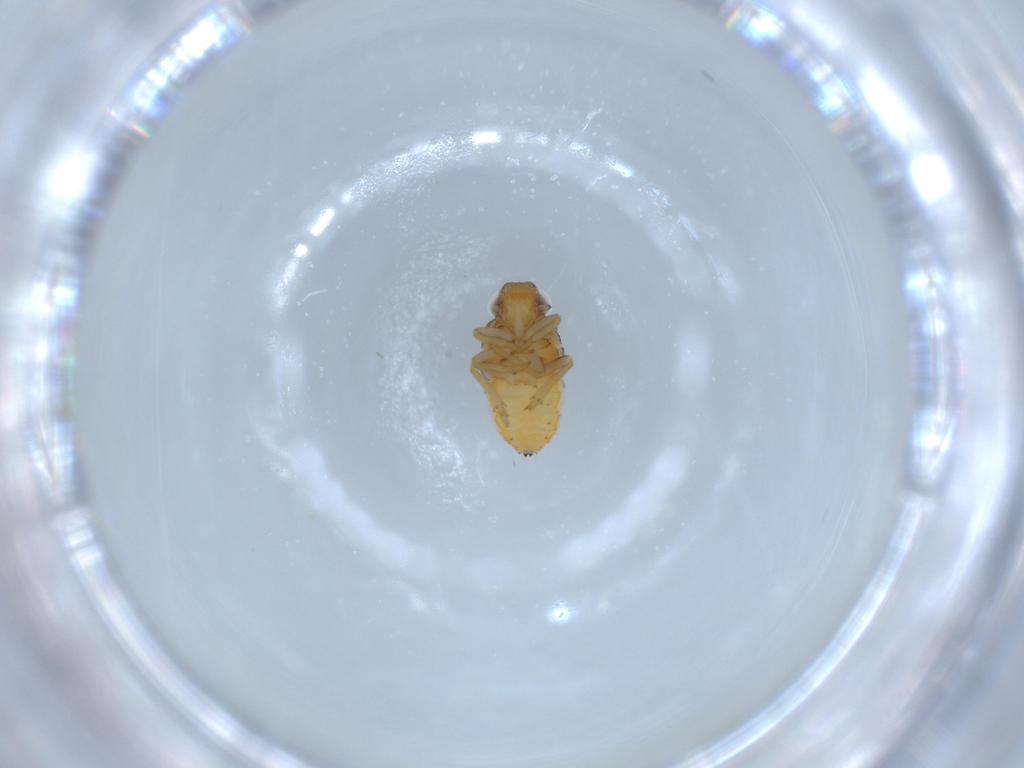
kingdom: Animalia
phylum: Arthropoda
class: Insecta
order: Hemiptera
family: Issidae
